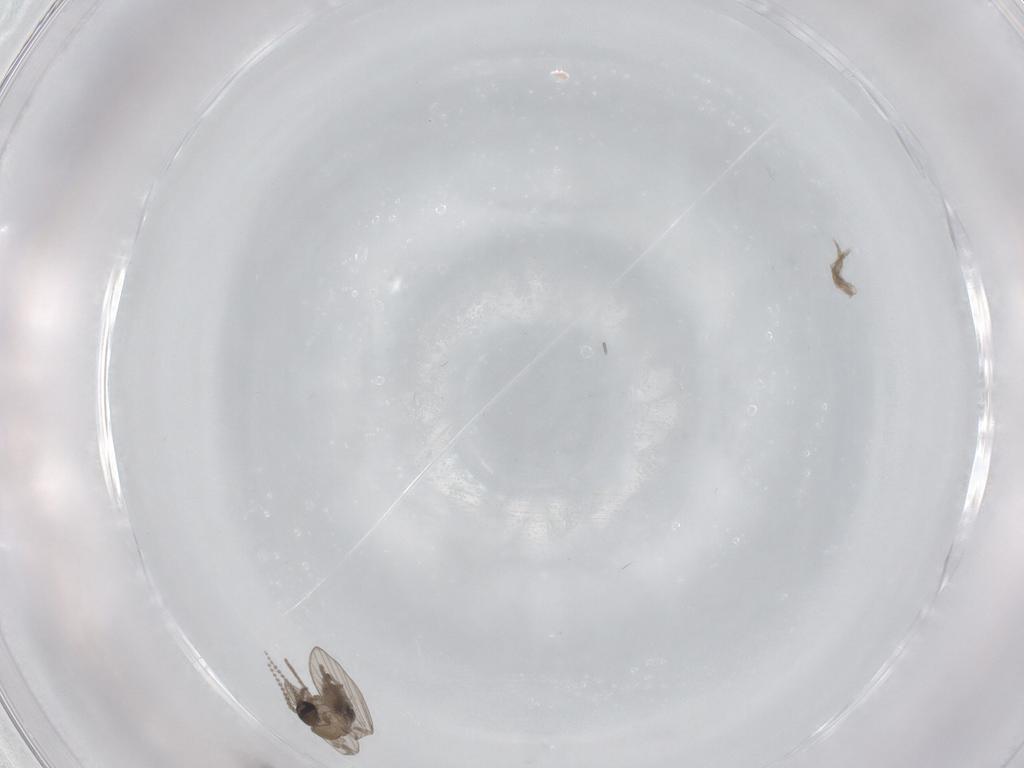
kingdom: Animalia
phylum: Arthropoda
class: Insecta
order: Diptera
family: Psychodidae
